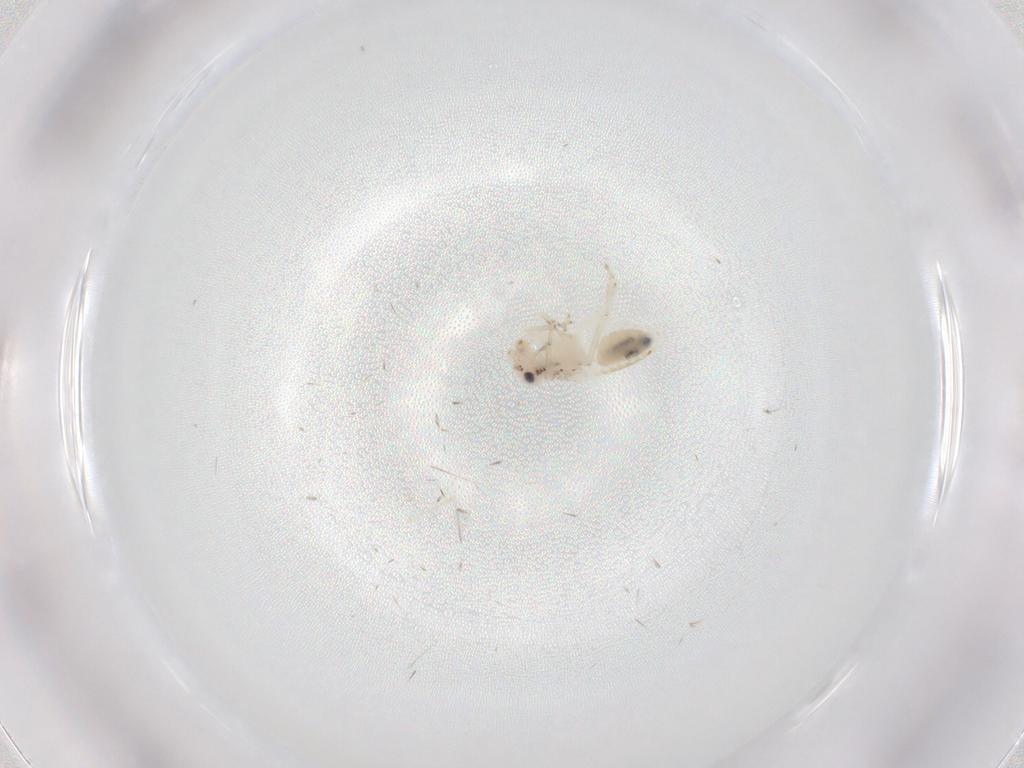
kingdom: Animalia
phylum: Arthropoda
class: Insecta
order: Psocodea
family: Lepidopsocidae
